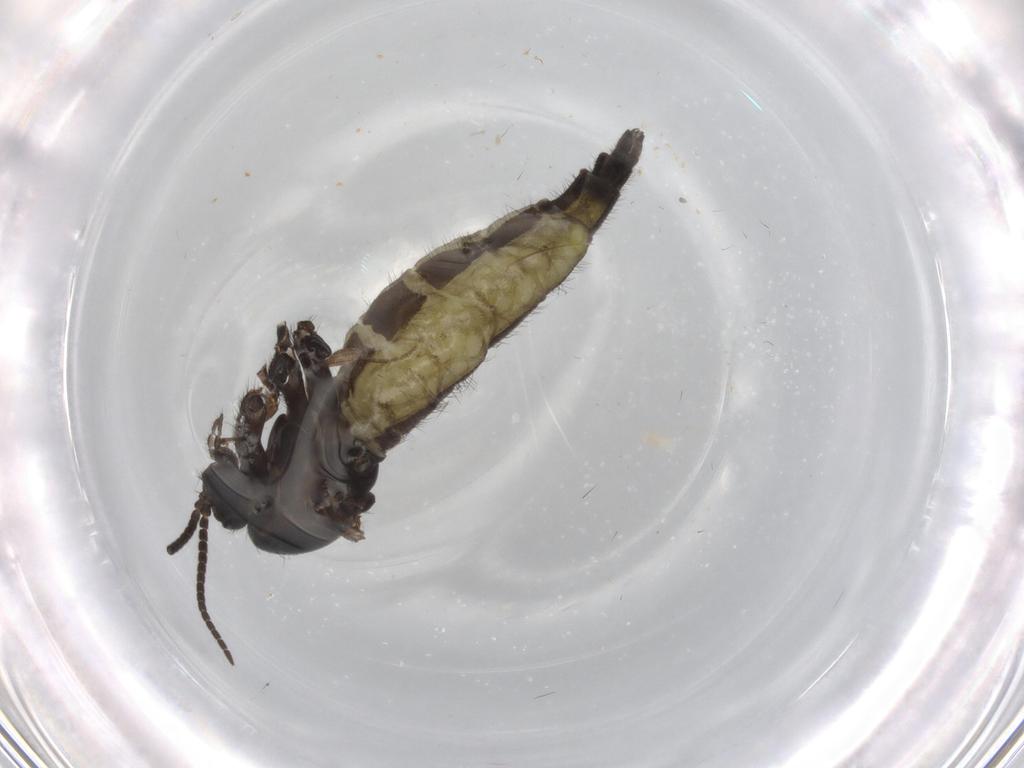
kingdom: Animalia
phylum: Arthropoda
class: Insecta
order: Diptera
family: Sciaridae
